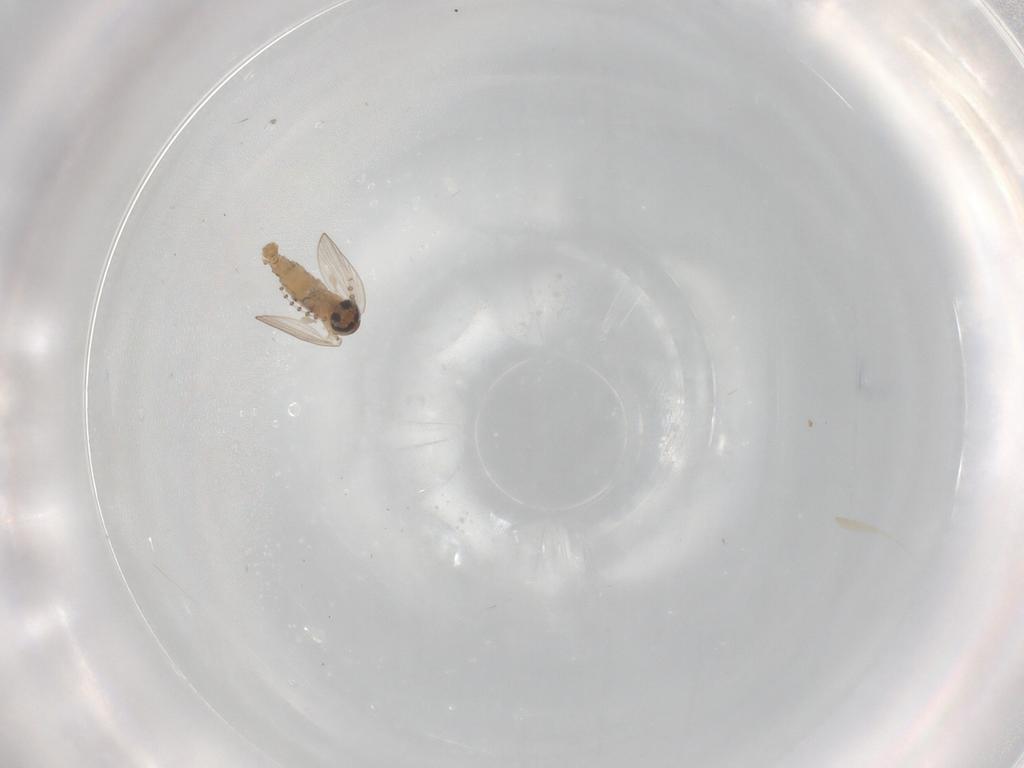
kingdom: Animalia
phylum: Arthropoda
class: Insecta
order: Diptera
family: Psychodidae
